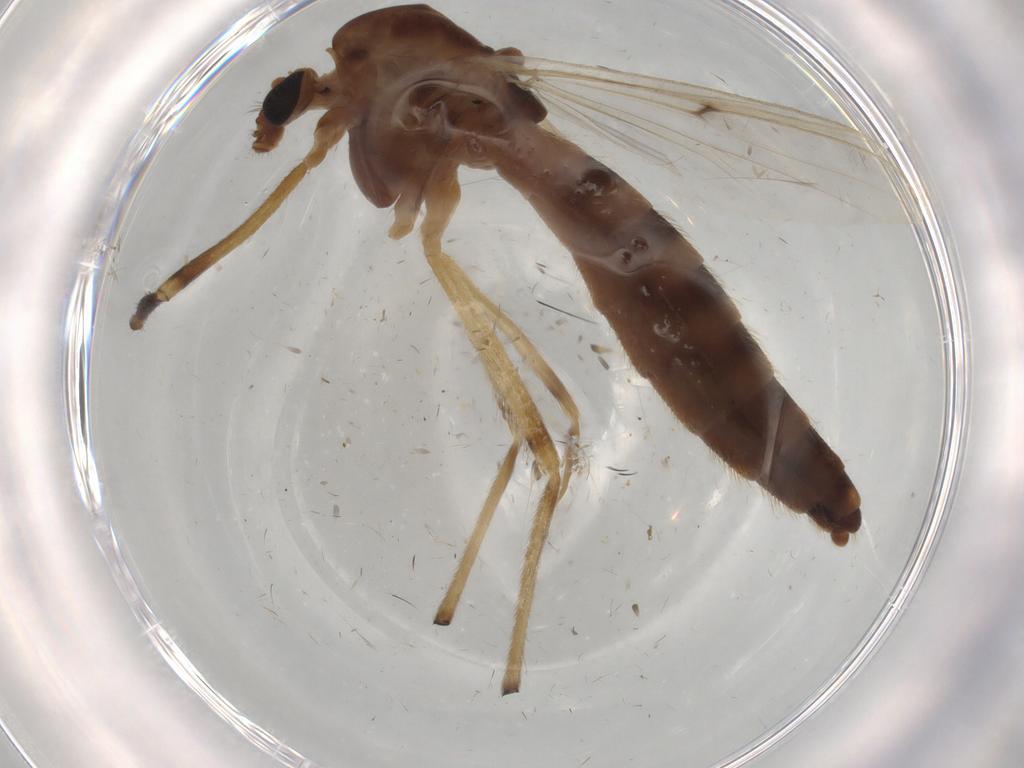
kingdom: Animalia
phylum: Arthropoda
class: Insecta
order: Diptera
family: Chironomidae
